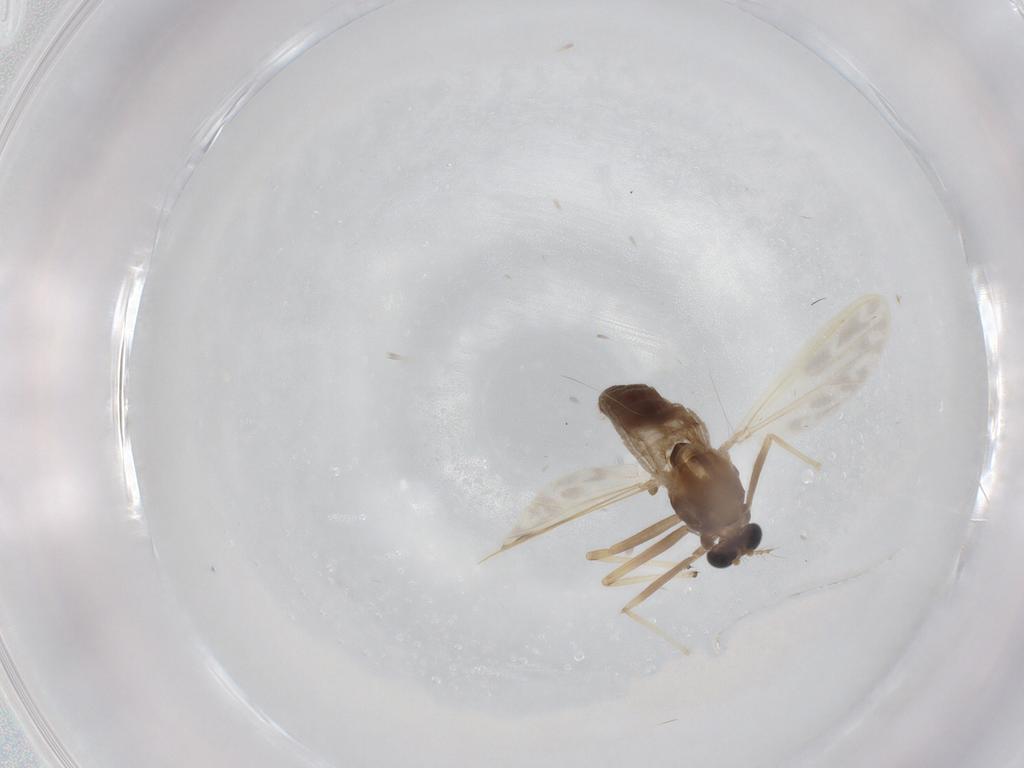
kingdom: Animalia
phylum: Arthropoda
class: Insecta
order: Diptera
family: Chironomidae
